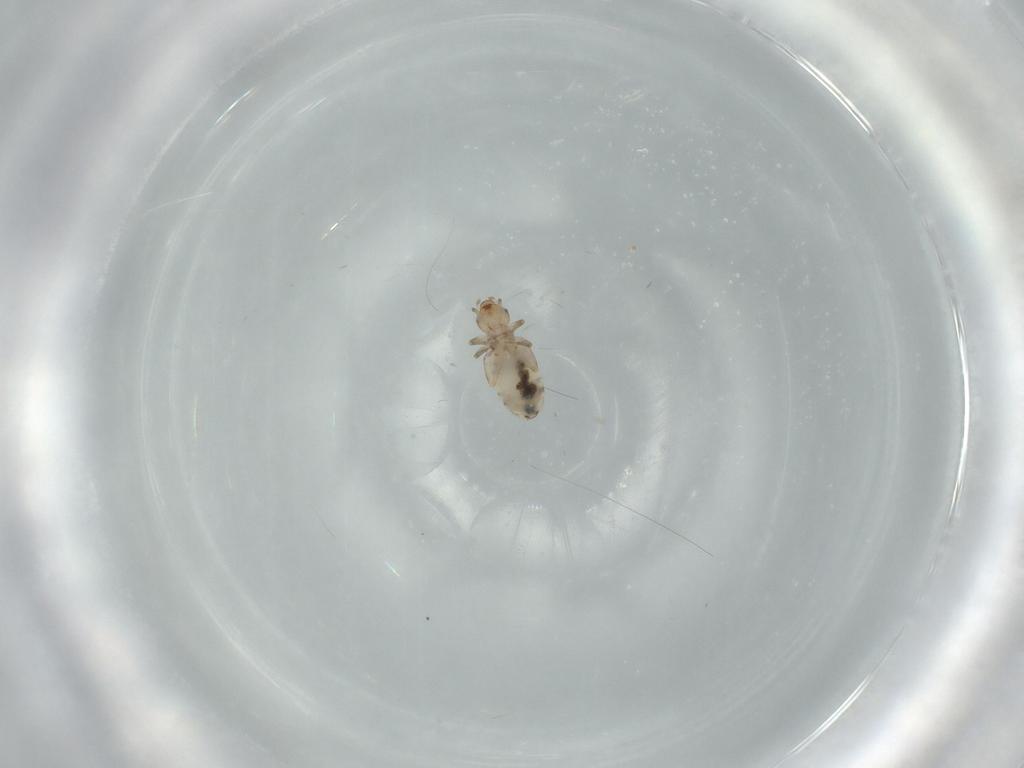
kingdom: Animalia
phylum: Arthropoda
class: Insecta
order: Psocodea
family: Liposcelididae
